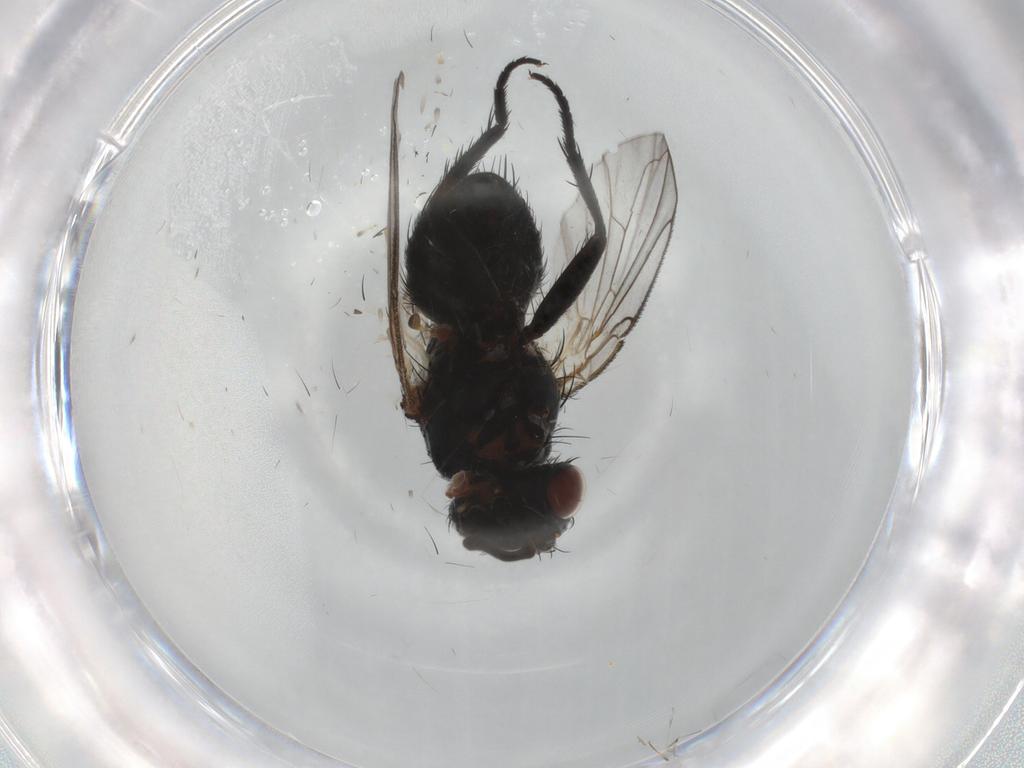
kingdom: Animalia
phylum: Arthropoda
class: Insecta
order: Diptera
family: Tachinidae
